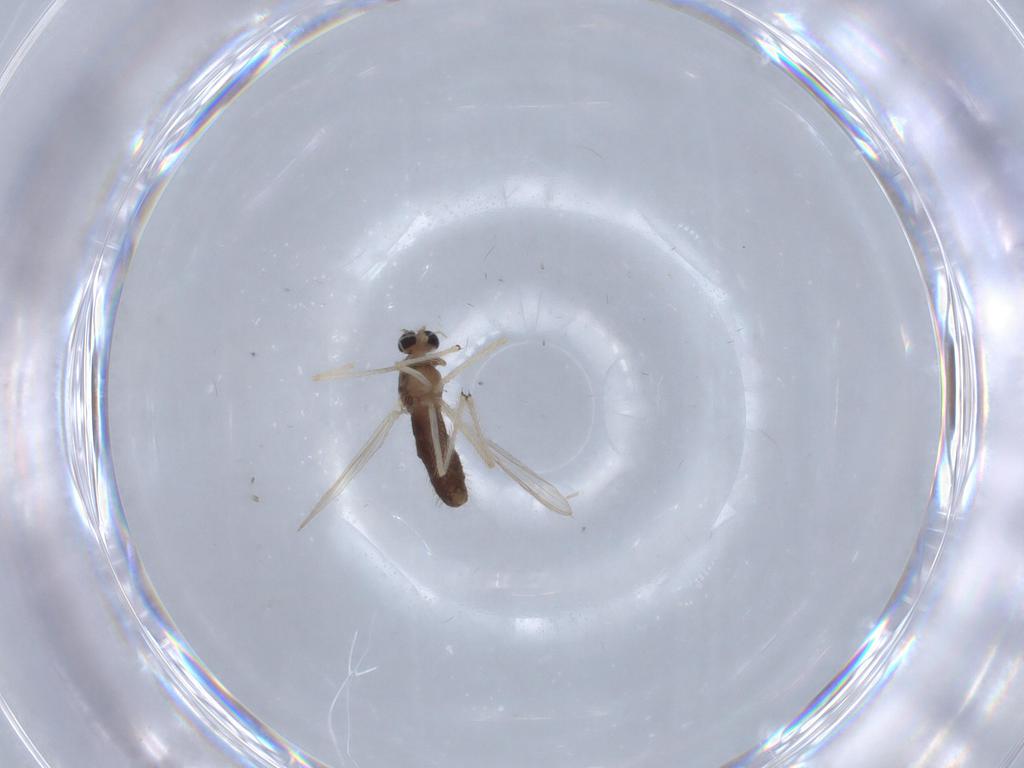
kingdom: Animalia
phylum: Arthropoda
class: Insecta
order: Diptera
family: Chironomidae
